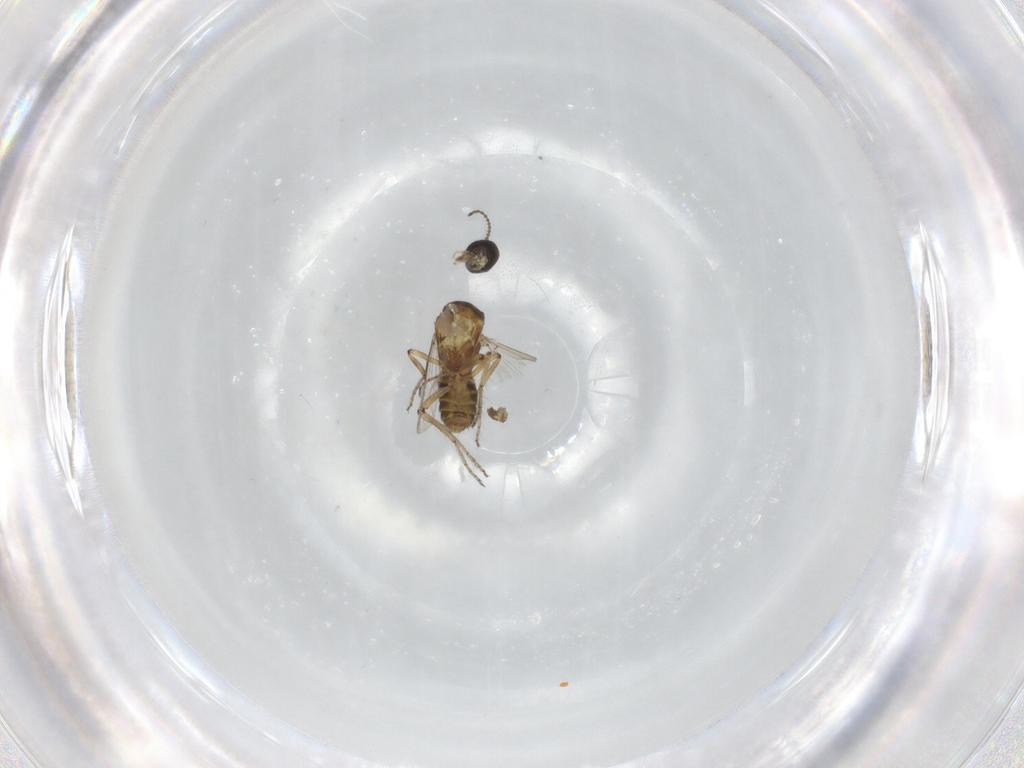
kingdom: Animalia
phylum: Arthropoda
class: Insecta
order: Diptera
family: Ceratopogonidae
